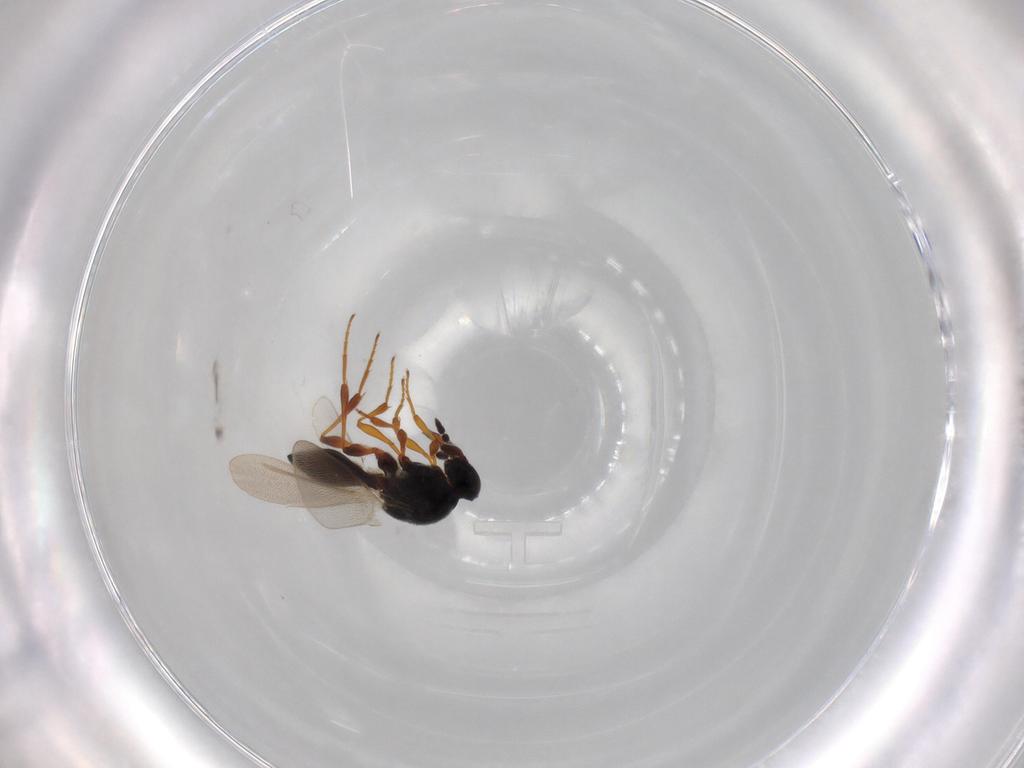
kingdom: Animalia
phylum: Arthropoda
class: Insecta
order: Hymenoptera
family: Platygastridae
